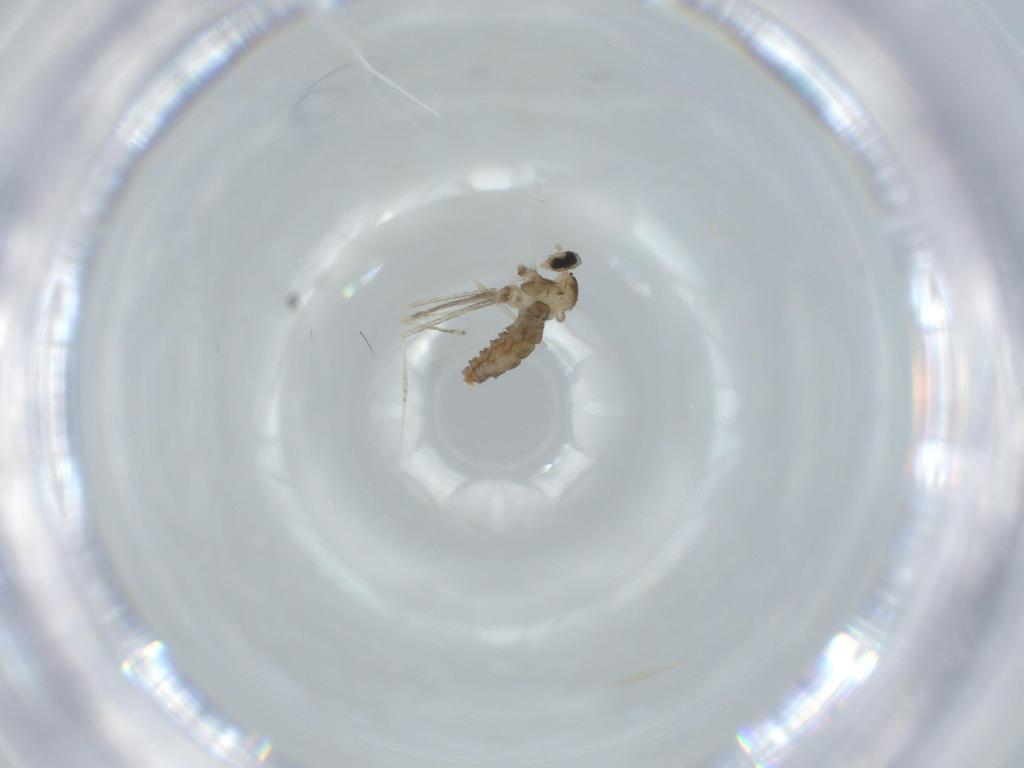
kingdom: Animalia
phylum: Arthropoda
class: Insecta
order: Diptera
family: Cecidomyiidae
